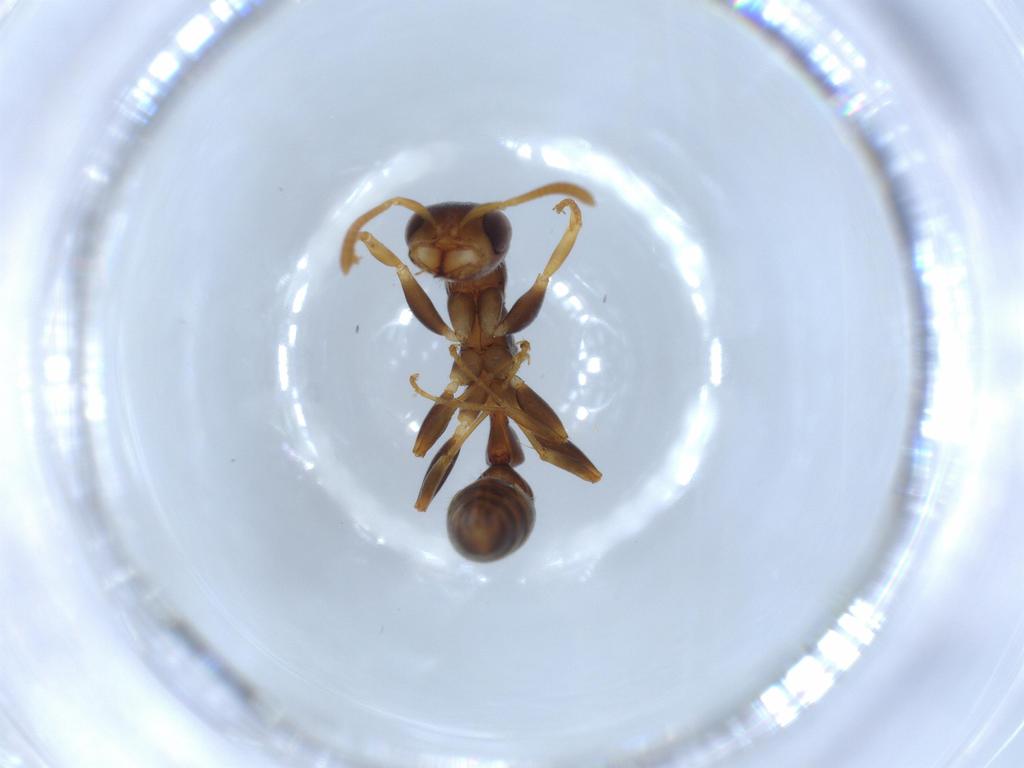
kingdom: Animalia
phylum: Arthropoda
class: Insecta
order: Hymenoptera
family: Formicidae
